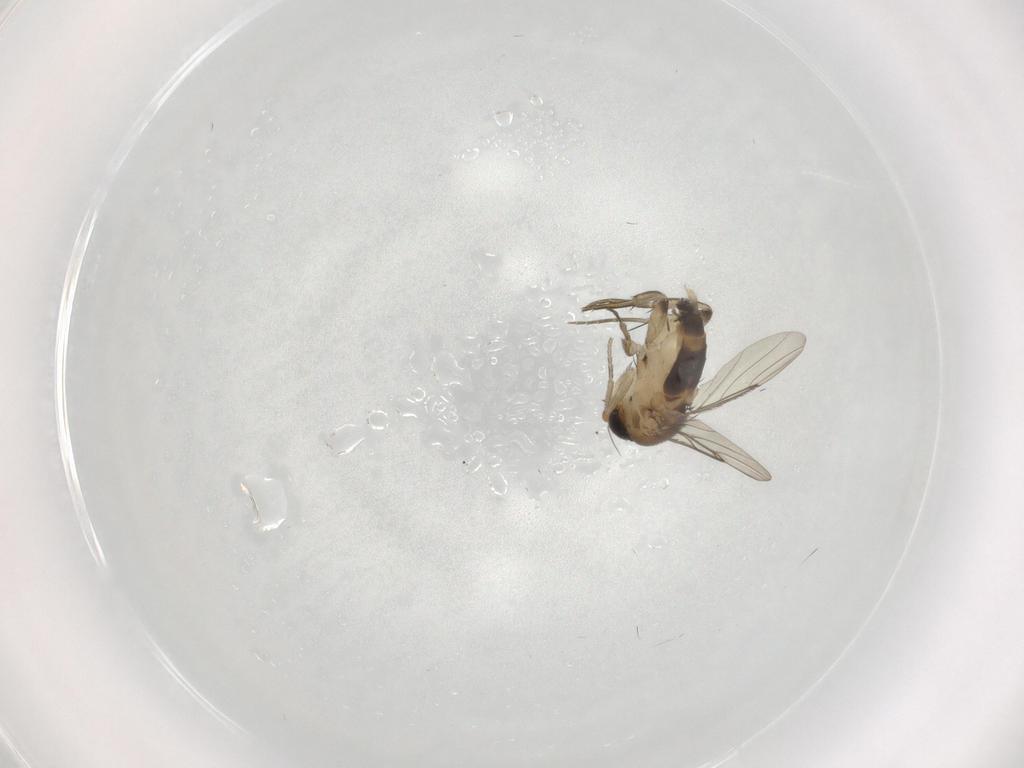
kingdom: Animalia
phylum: Arthropoda
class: Insecta
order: Diptera
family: Phoridae
